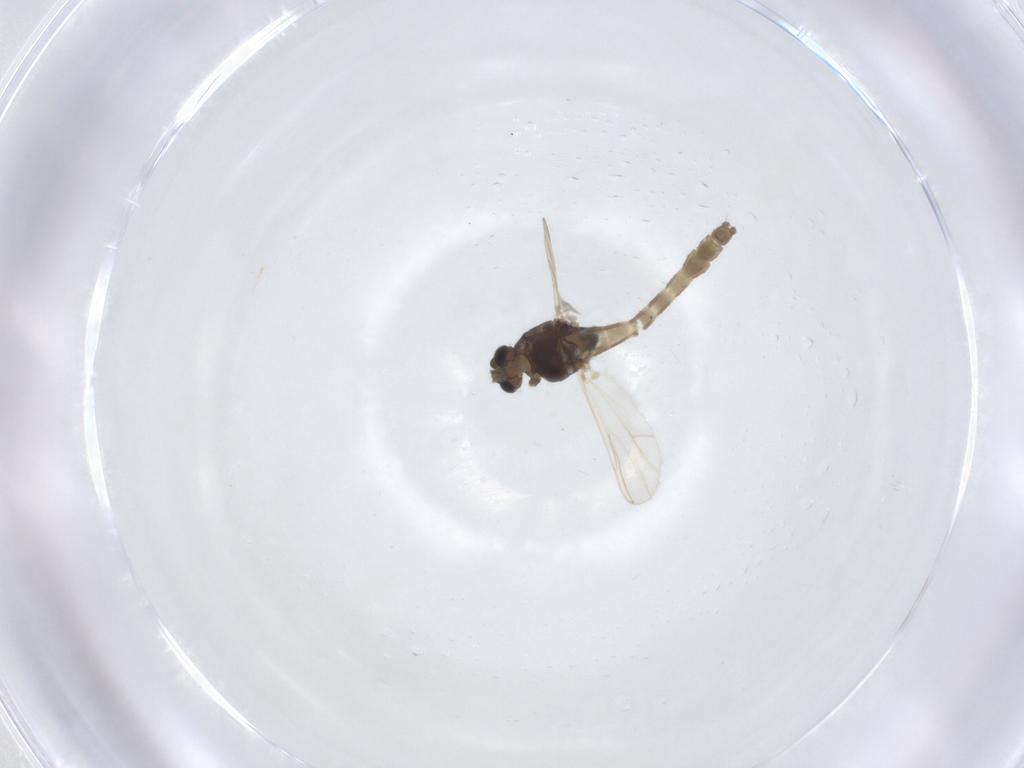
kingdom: Animalia
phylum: Arthropoda
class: Insecta
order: Diptera
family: Chironomidae
